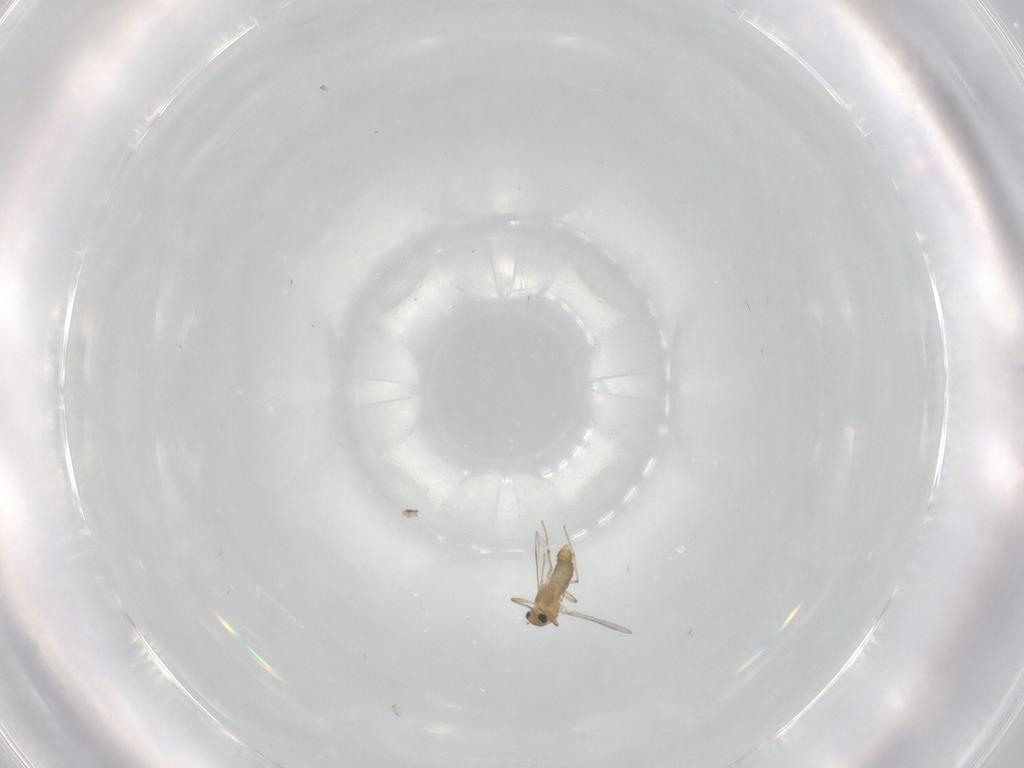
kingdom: Animalia
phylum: Arthropoda
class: Insecta
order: Diptera
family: Chironomidae
